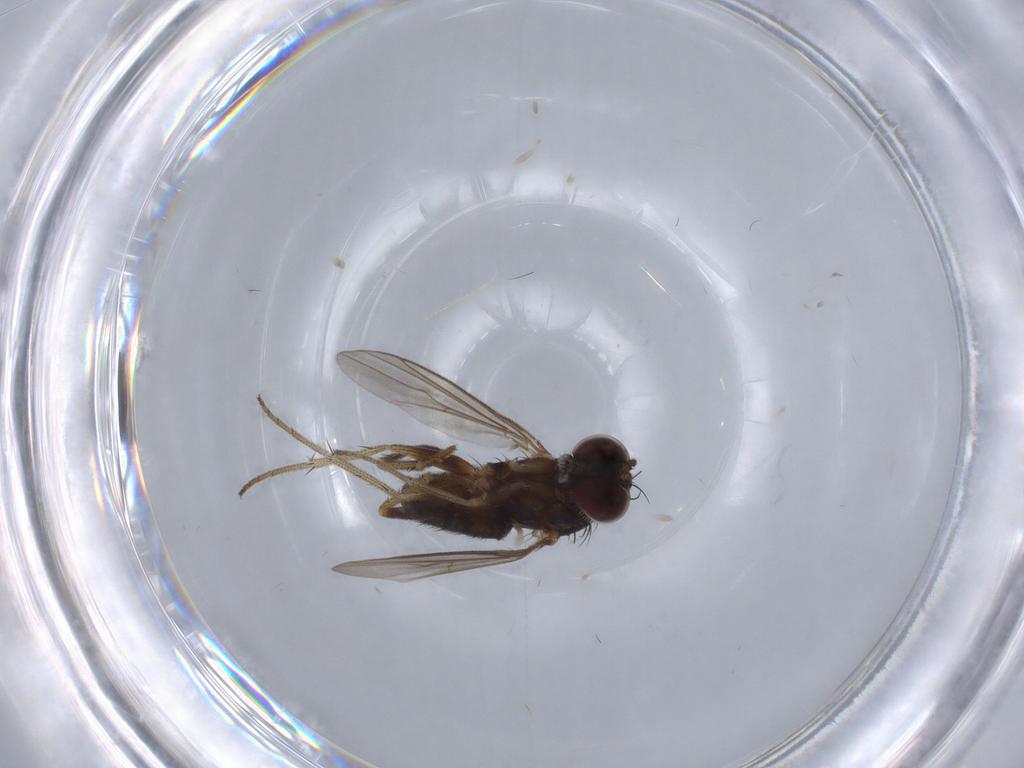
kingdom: Animalia
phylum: Arthropoda
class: Insecta
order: Diptera
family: Dolichopodidae
